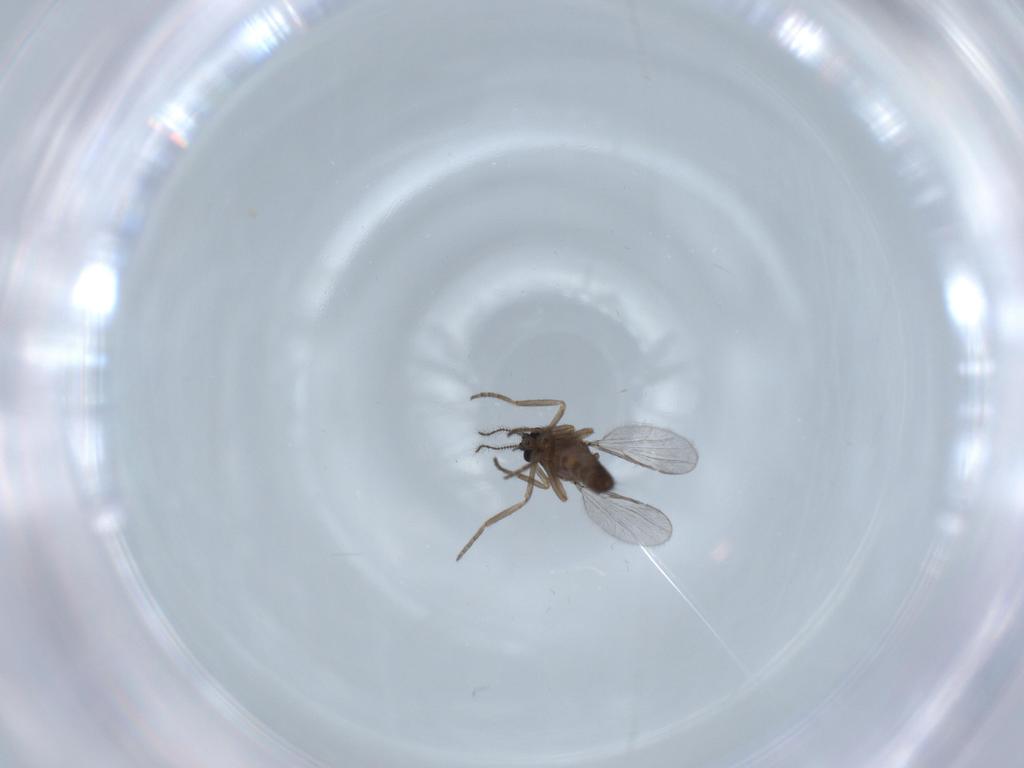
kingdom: Animalia
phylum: Arthropoda
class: Insecta
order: Diptera
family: Dolichopodidae
